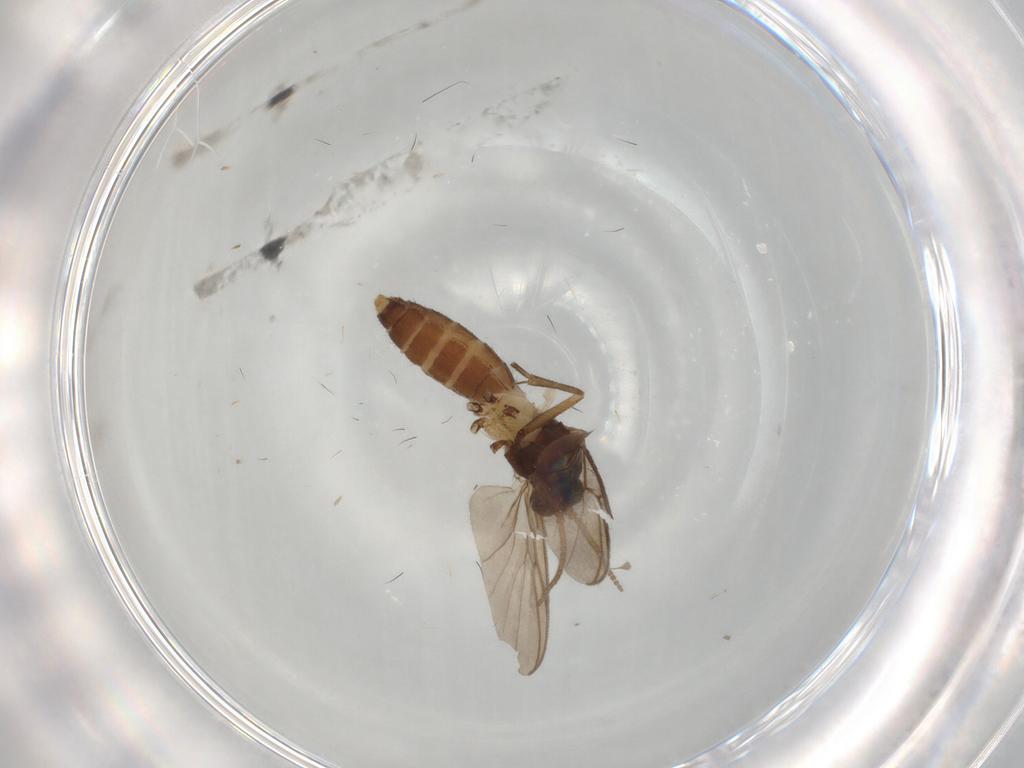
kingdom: Animalia
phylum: Arthropoda
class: Insecta
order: Diptera
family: Mycetophilidae
